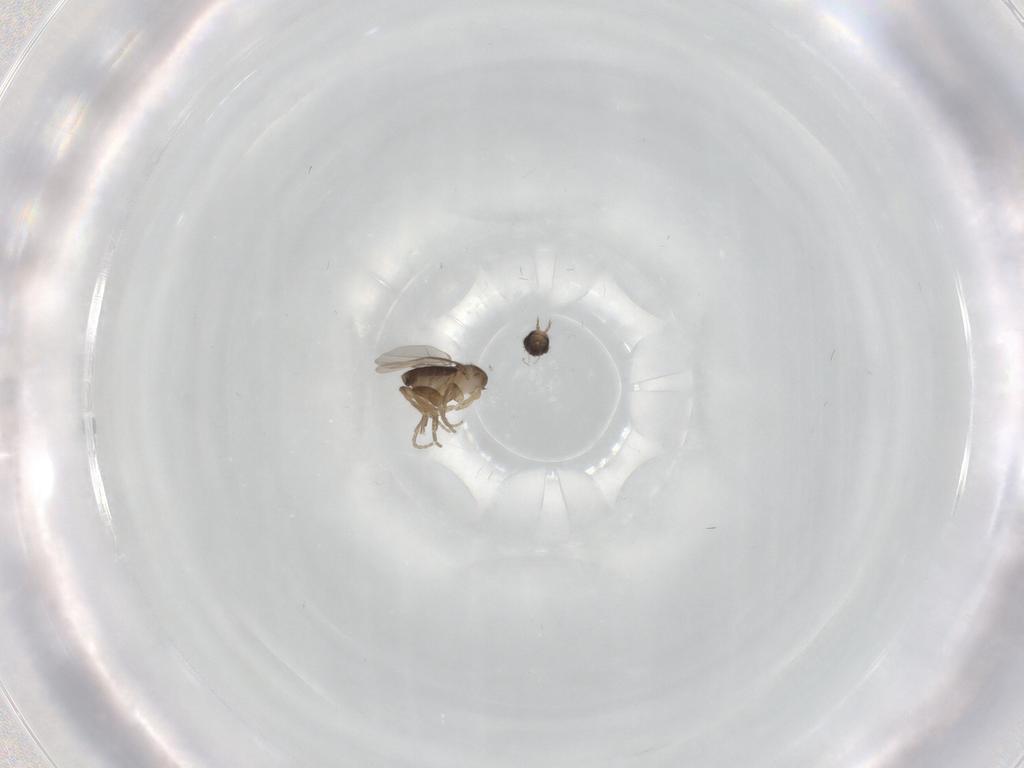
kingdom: Animalia
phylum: Arthropoda
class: Insecta
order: Diptera
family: Phoridae
